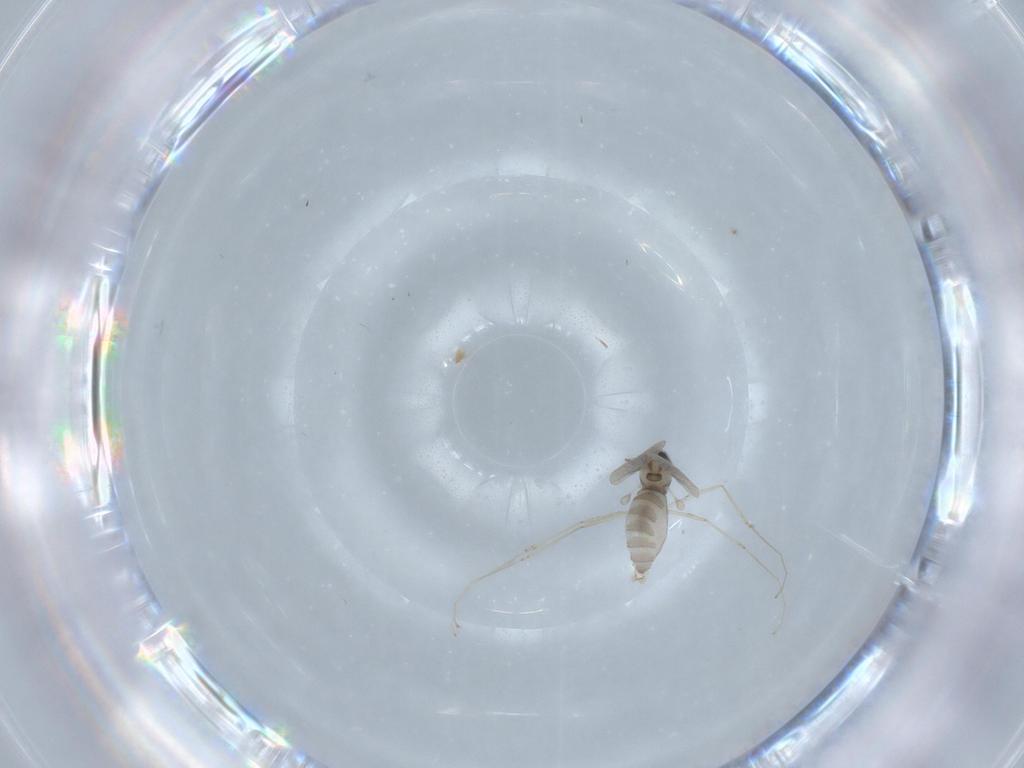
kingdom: Animalia
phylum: Arthropoda
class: Insecta
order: Diptera
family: Cecidomyiidae
